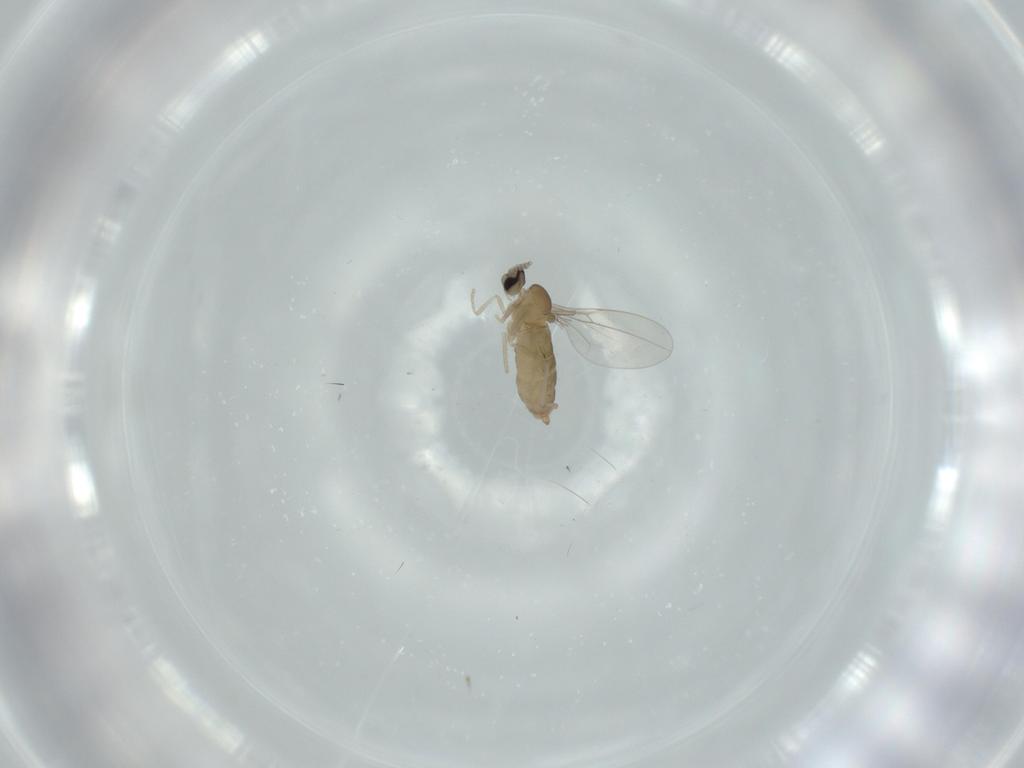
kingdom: Animalia
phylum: Arthropoda
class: Insecta
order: Diptera
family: Cecidomyiidae
